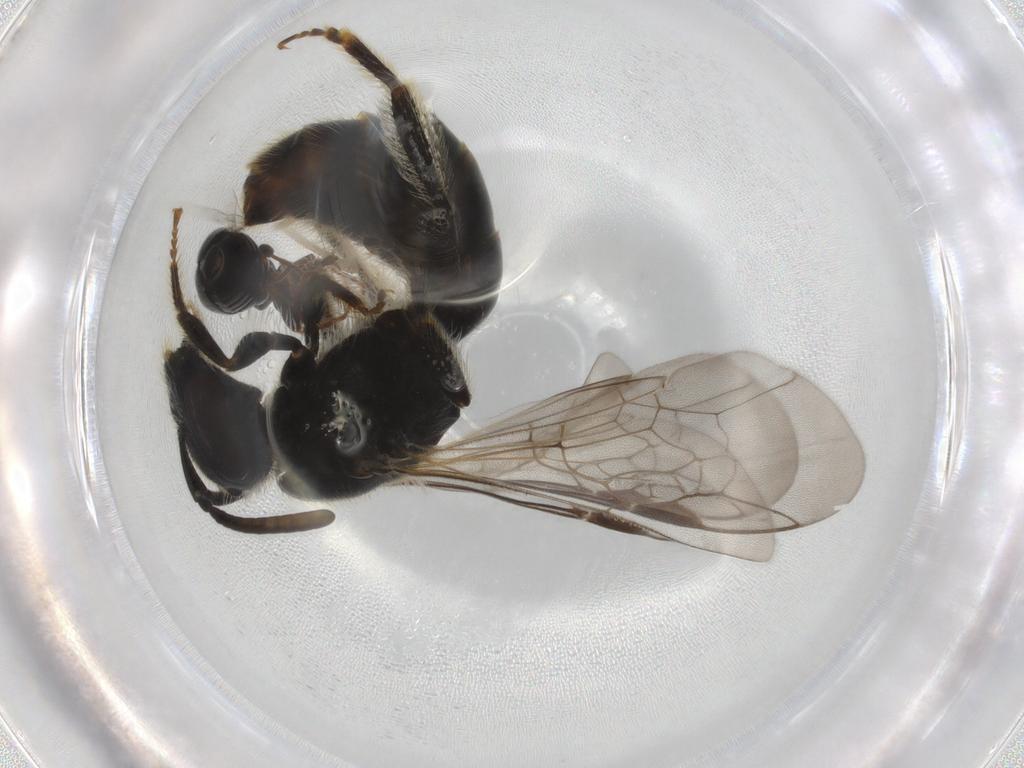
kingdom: Animalia
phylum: Arthropoda
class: Insecta
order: Coleoptera
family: Anthicidae
